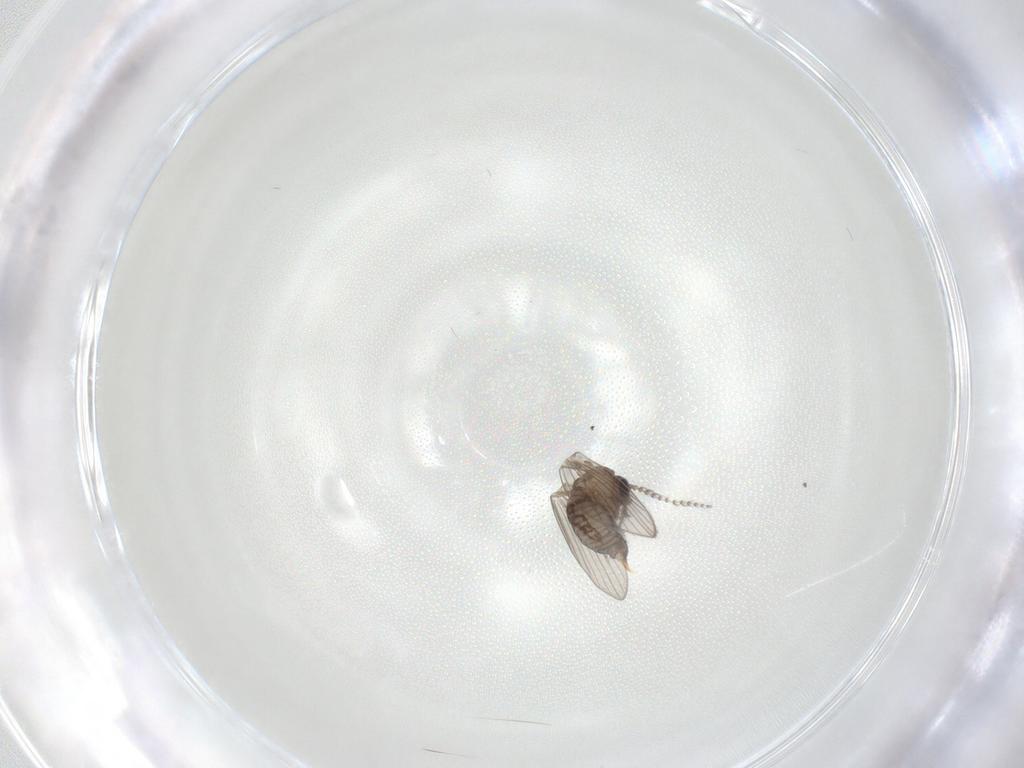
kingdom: Animalia
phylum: Arthropoda
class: Insecta
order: Diptera
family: Psychodidae
